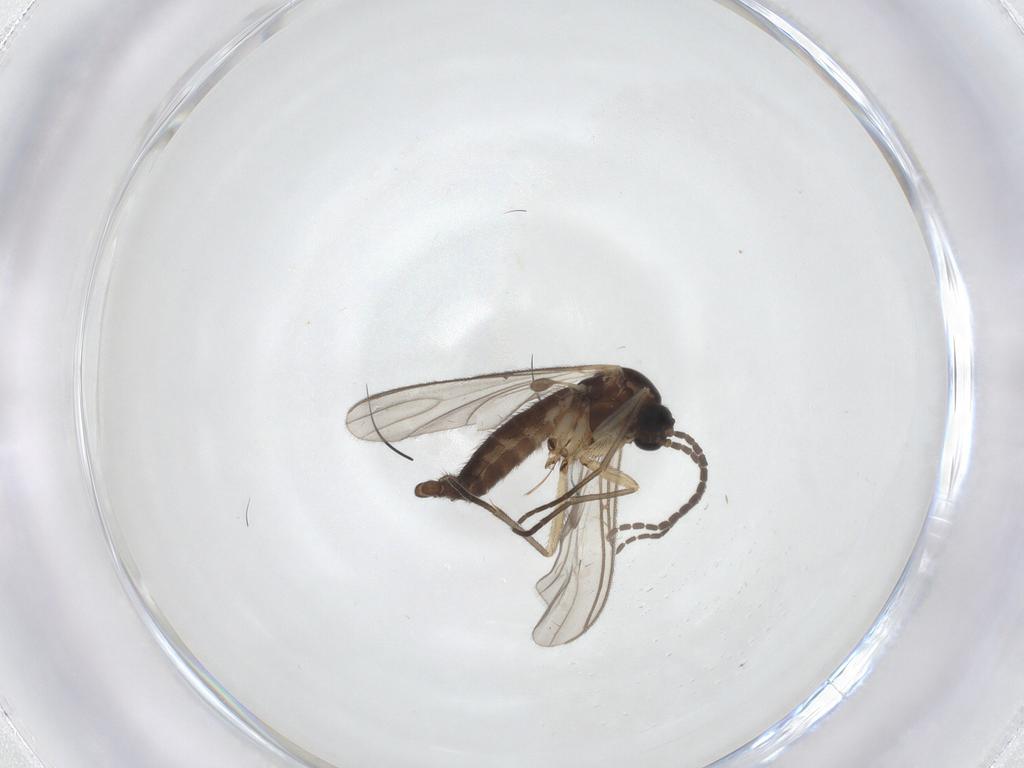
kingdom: Animalia
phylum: Arthropoda
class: Insecta
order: Diptera
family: Sciaridae
